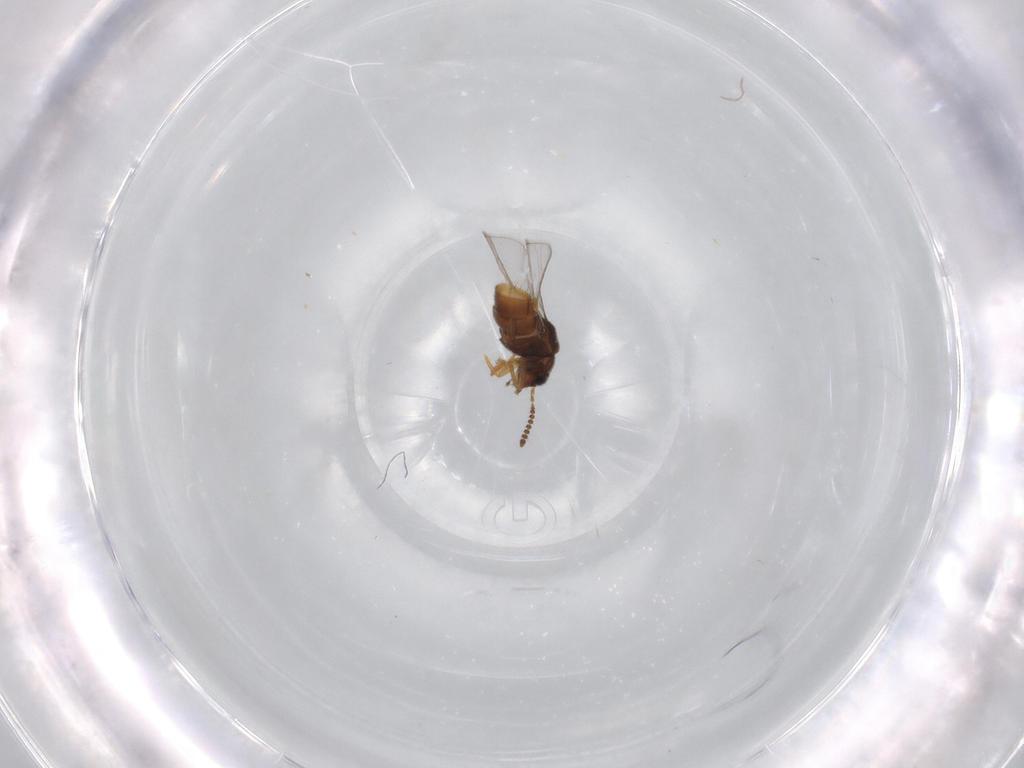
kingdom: Animalia
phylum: Arthropoda
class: Insecta
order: Coleoptera
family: Staphylinidae
